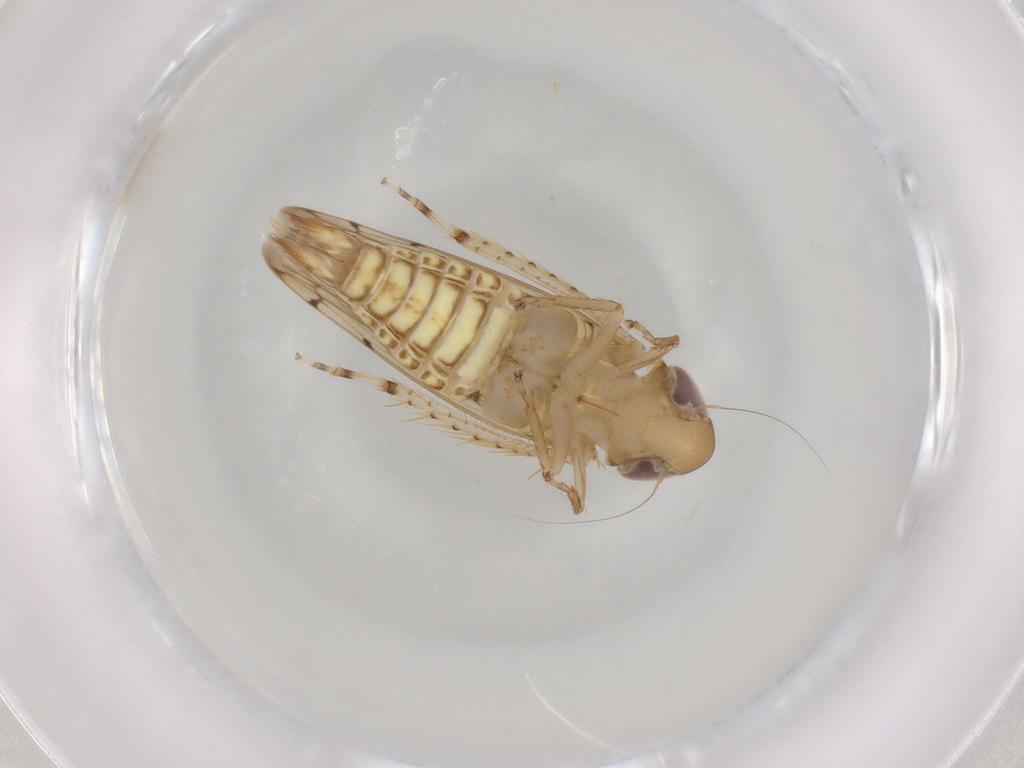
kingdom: Animalia
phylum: Arthropoda
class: Insecta
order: Hemiptera
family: Cicadellidae
